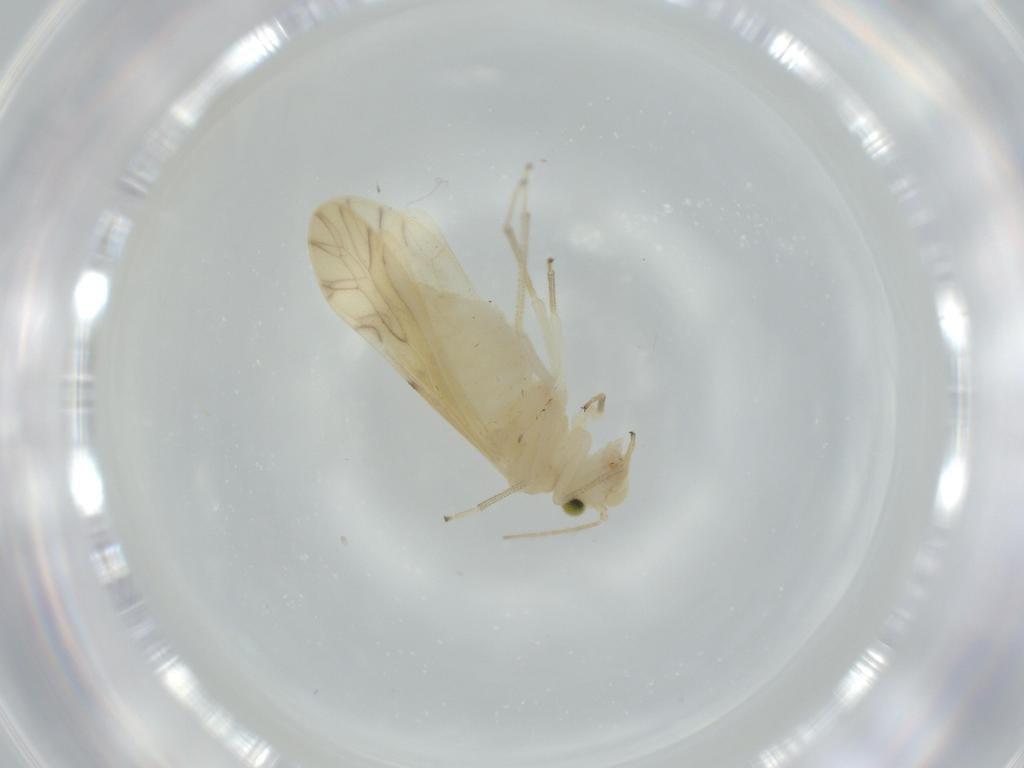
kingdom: Animalia
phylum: Arthropoda
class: Insecta
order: Psocodea
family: Caeciliusidae
